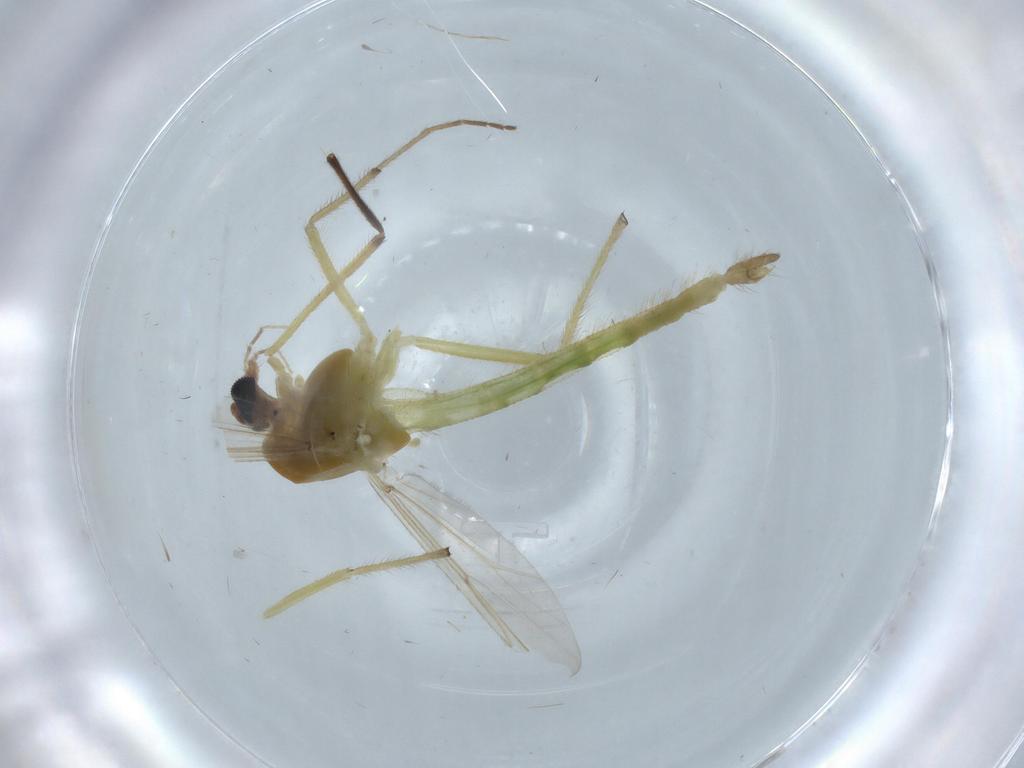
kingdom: Animalia
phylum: Arthropoda
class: Insecta
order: Diptera
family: Chironomidae
